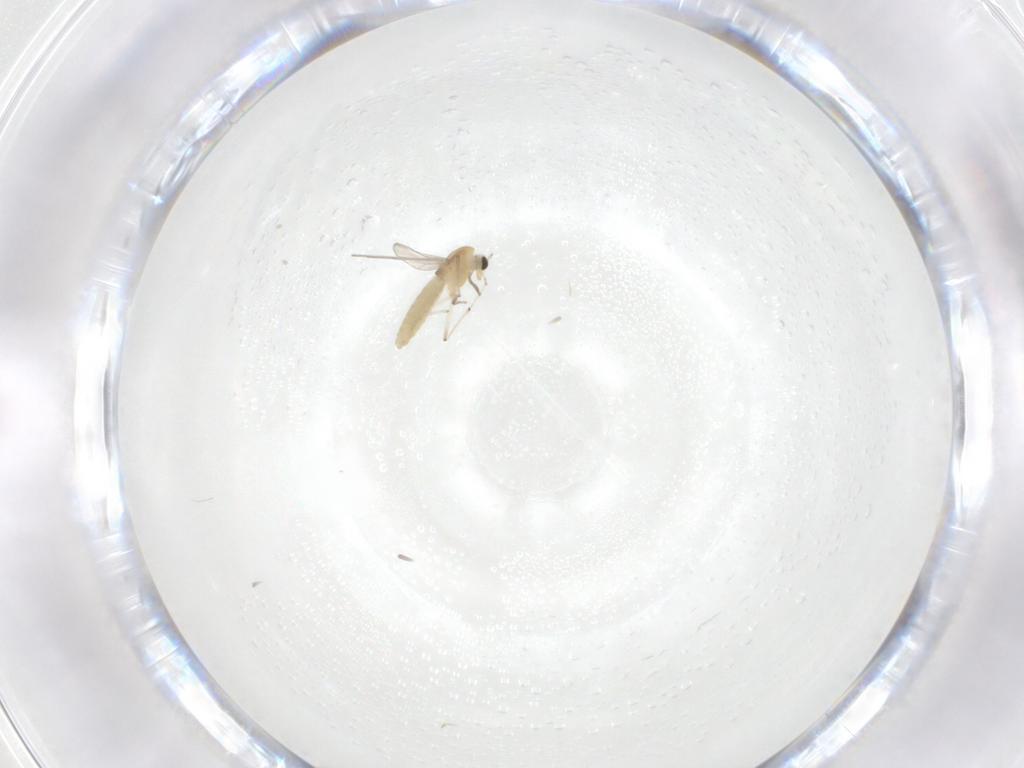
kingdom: Animalia
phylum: Arthropoda
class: Insecta
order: Diptera
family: Chironomidae
